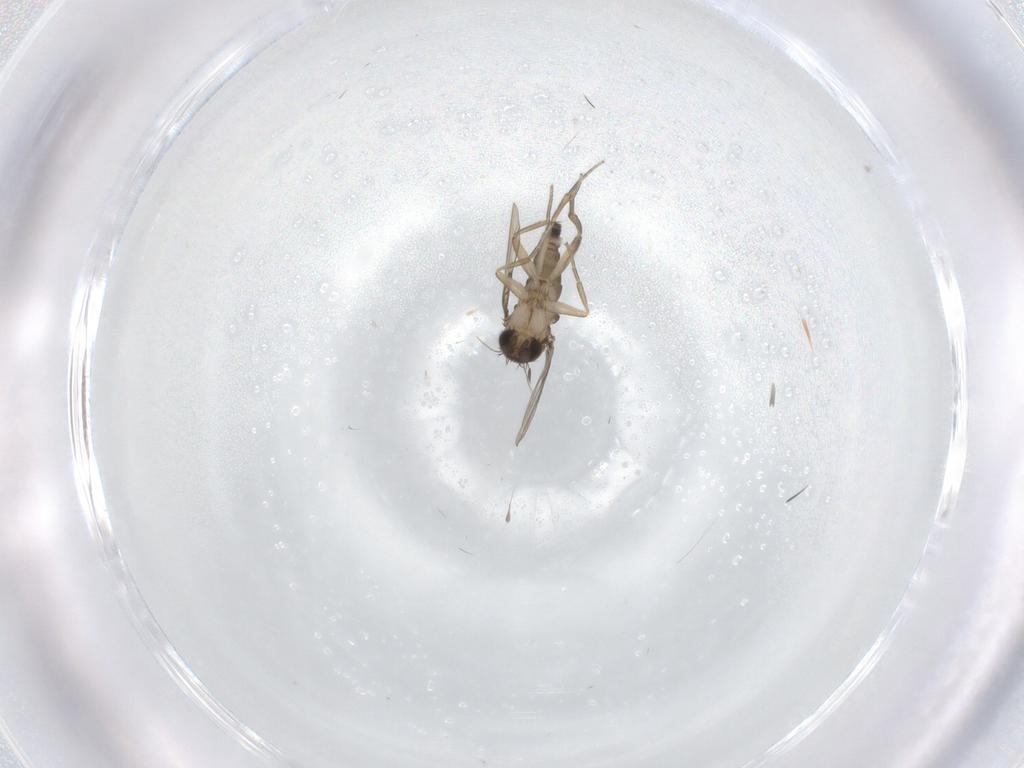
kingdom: Animalia
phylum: Arthropoda
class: Insecta
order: Diptera
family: Phoridae
